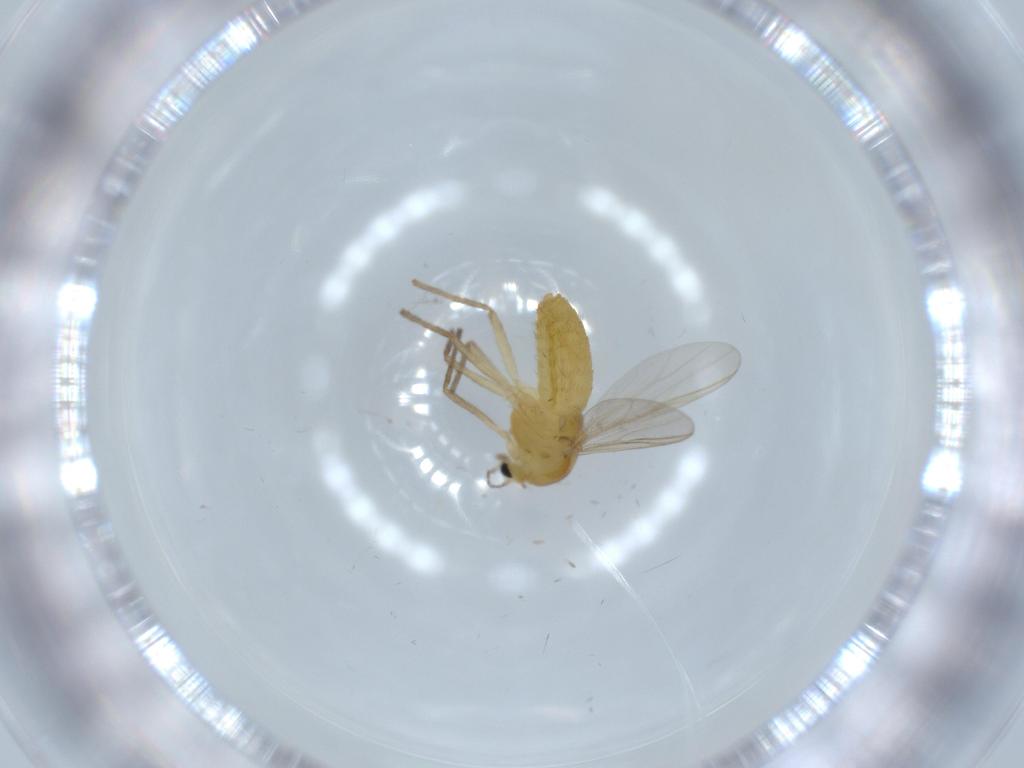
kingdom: Animalia
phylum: Arthropoda
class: Insecta
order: Diptera
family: Chironomidae
